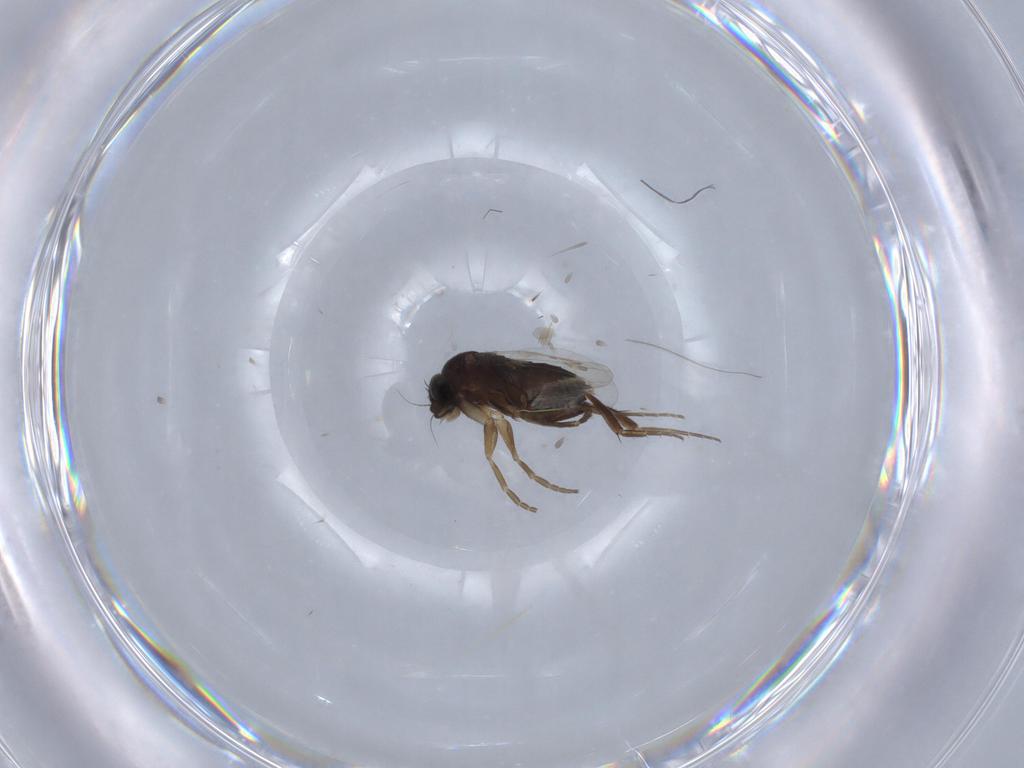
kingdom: Animalia
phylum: Arthropoda
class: Insecta
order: Diptera
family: Phoridae
